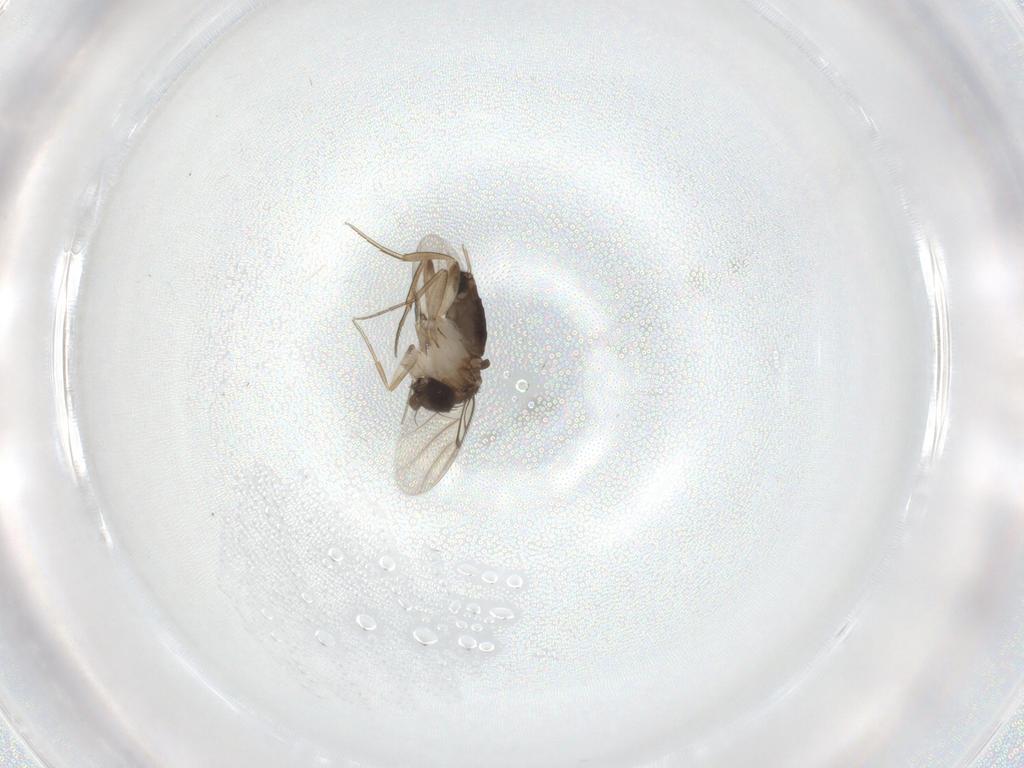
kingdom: Animalia
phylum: Arthropoda
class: Insecta
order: Diptera
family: Phoridae
